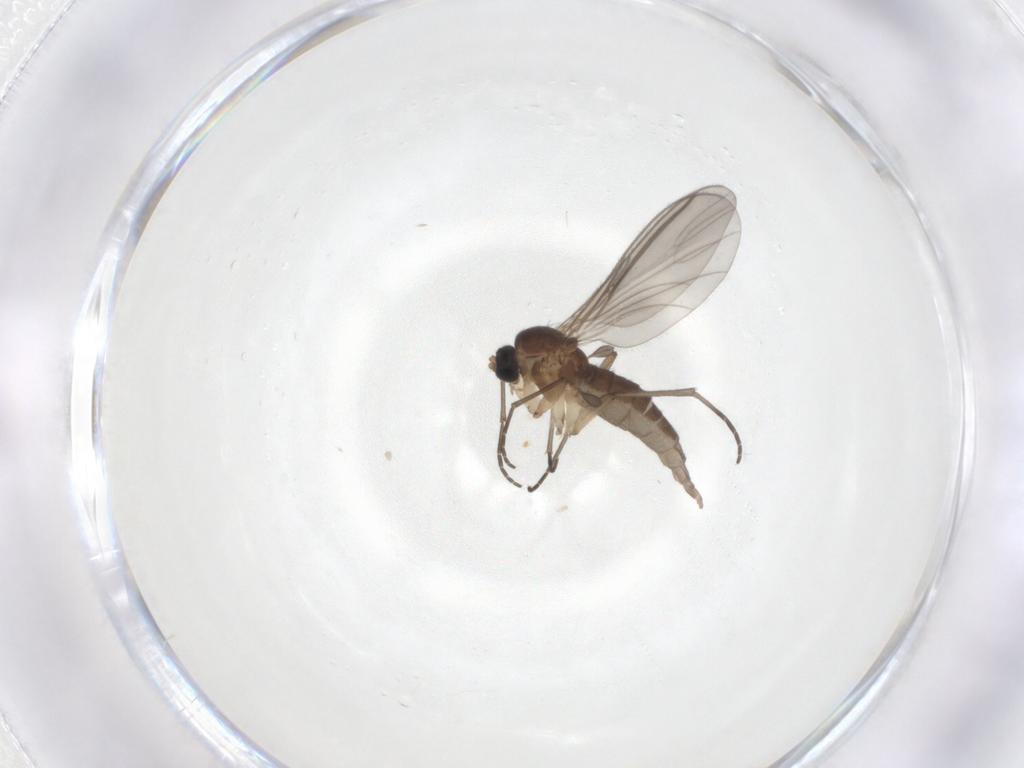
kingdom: Animalia
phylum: Arthropoda
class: Insecta
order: Diptera
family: Sciaridae
